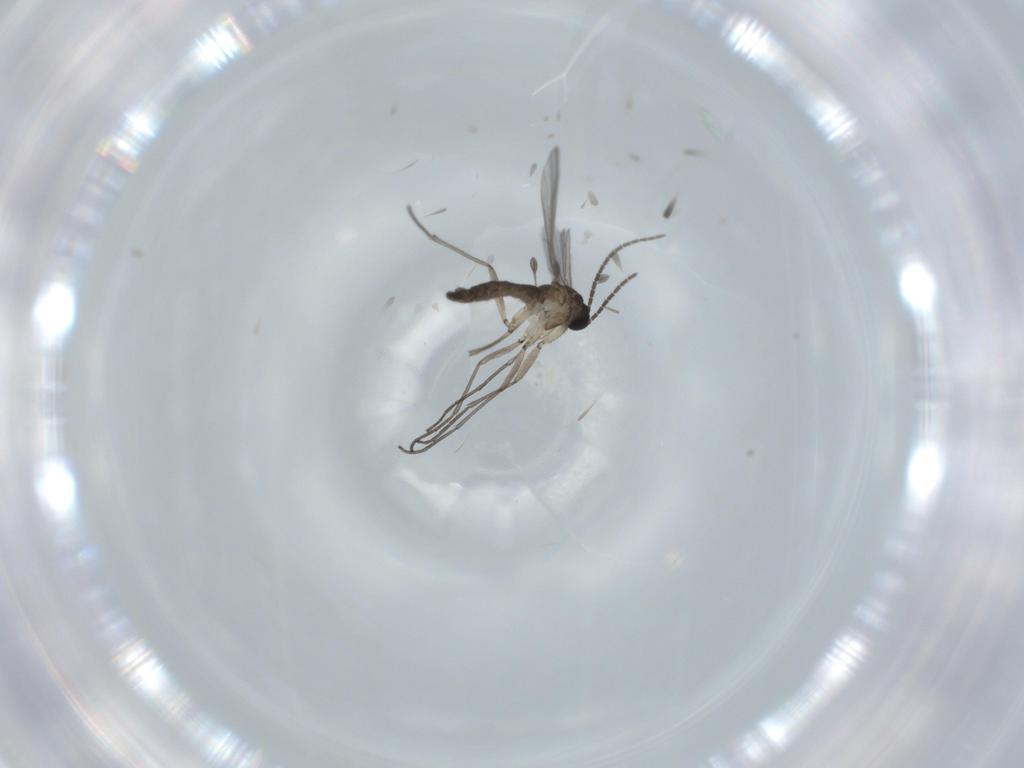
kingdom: Animalia
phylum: Arthropoda
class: Insecta
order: Diptera
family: Sciaridae
